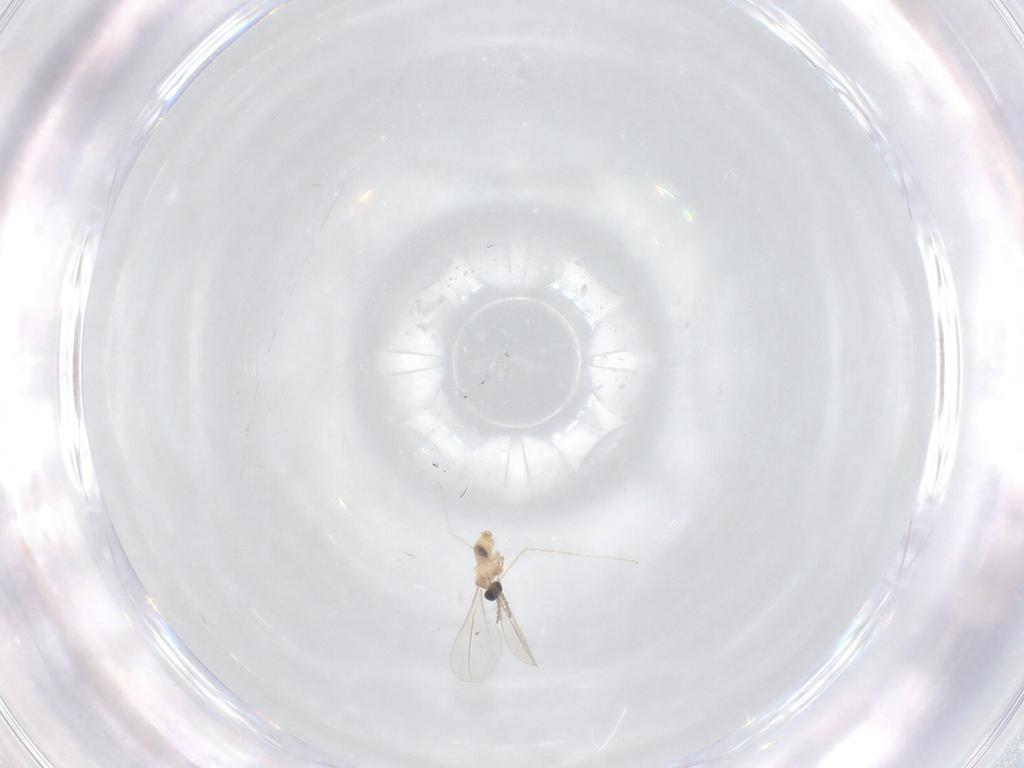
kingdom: Animalia
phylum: Arthropoda
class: Insecta
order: Diptera
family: Cecidomyiidae
